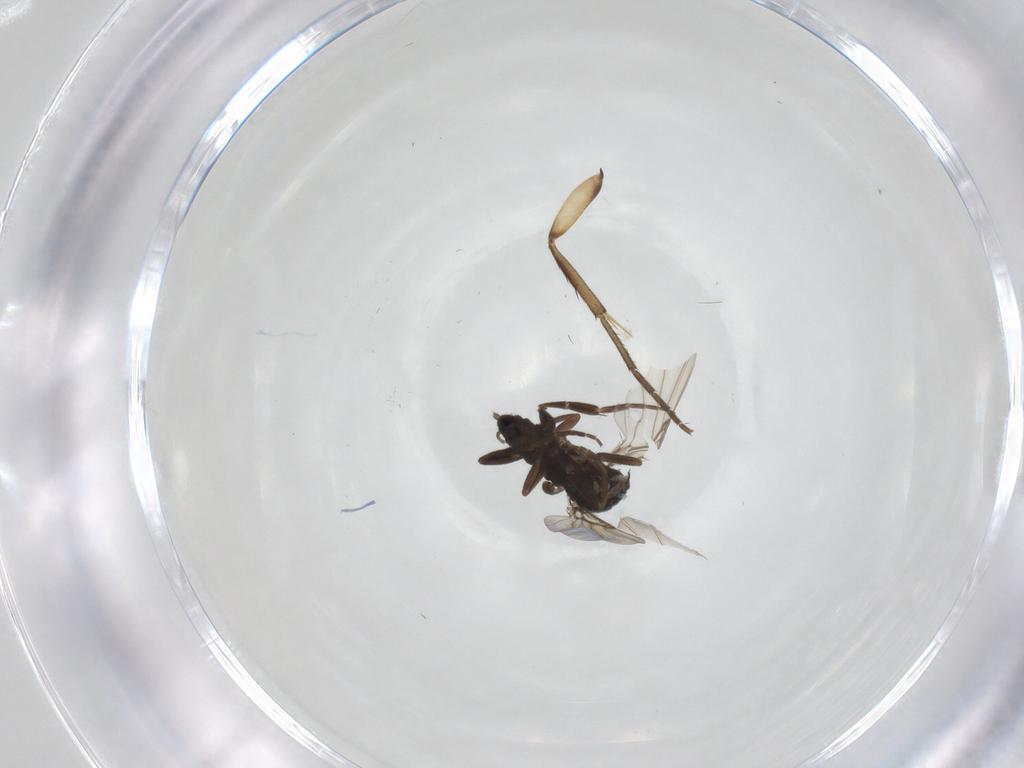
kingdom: Animalia
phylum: Arthropoda
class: Insecta
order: Diptera
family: Phoridae
